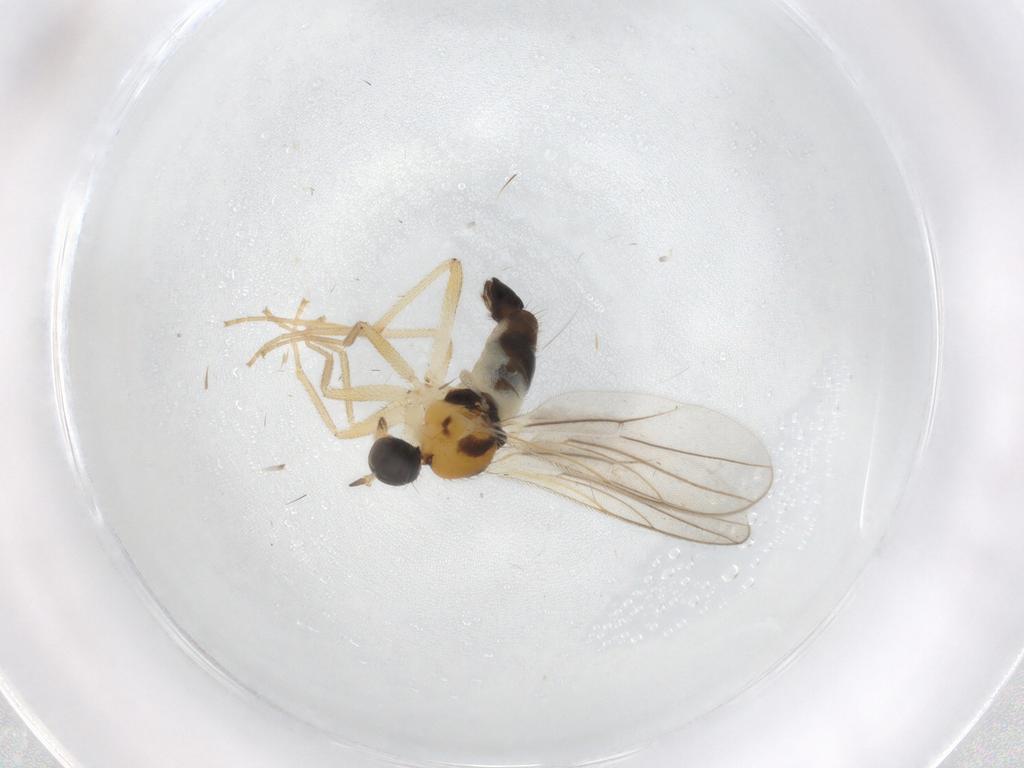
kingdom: Animalia
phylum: Arthropoda
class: Insecta
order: Diptera
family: Hybotidae
